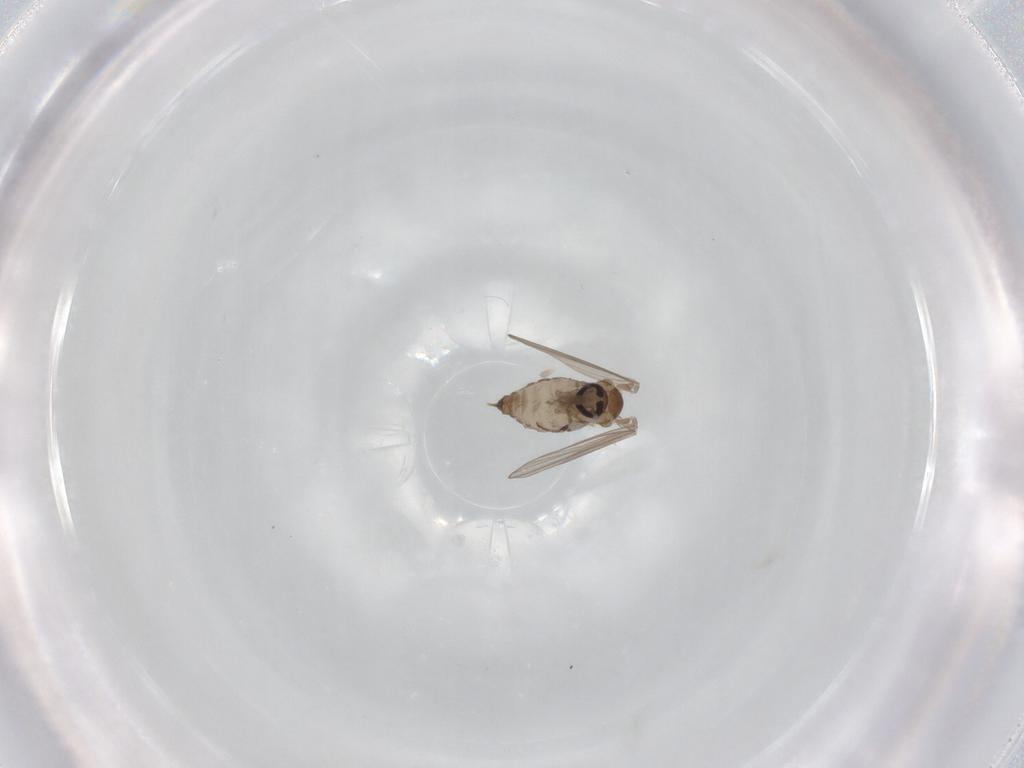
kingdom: Animalia
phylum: Arthropoda
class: Insecta
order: Diptera
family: Psychodidae
